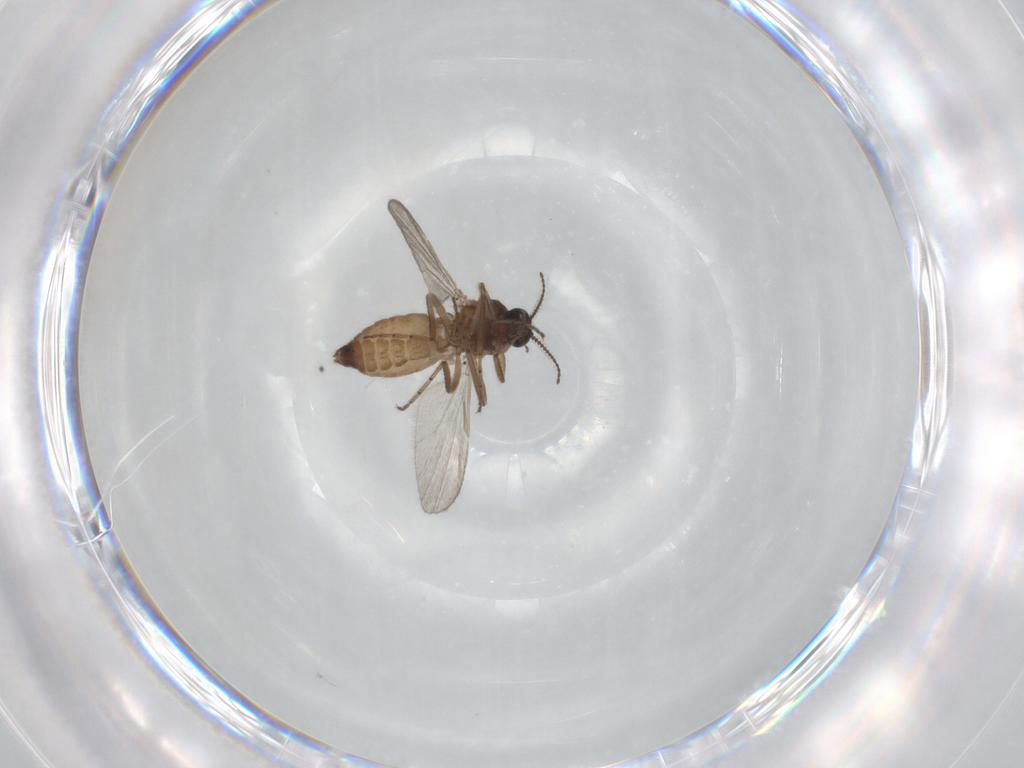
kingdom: Animalia
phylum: Arthropoda
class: Insecta
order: Diptera
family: Ceratopogonidae
